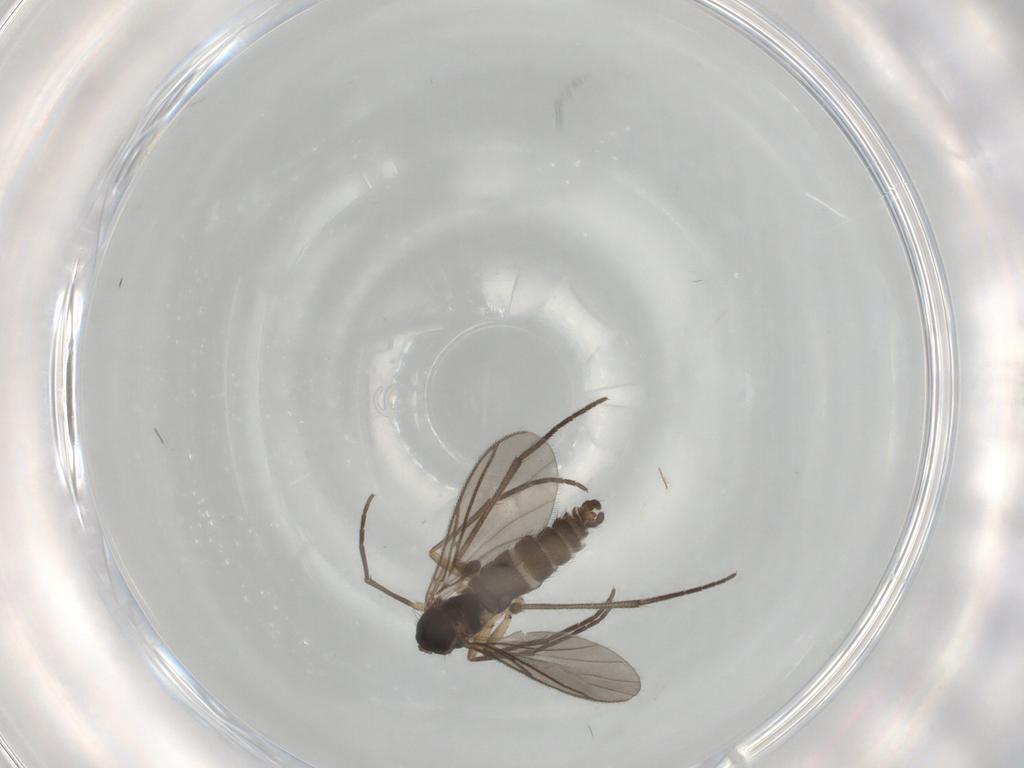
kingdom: Animalia
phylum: Arthropoda
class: Insecta
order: Diptera
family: Sciaridae
